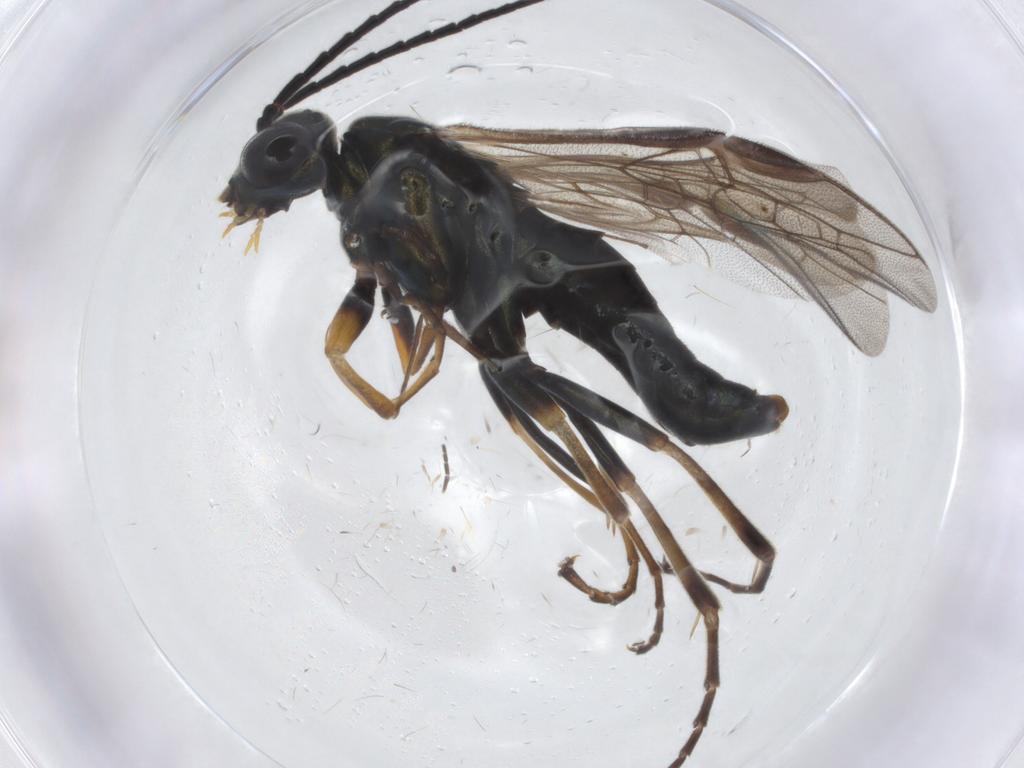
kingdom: Animalia
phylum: Arthropoda
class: Insecta
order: Hymenoptera
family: Pergidae
